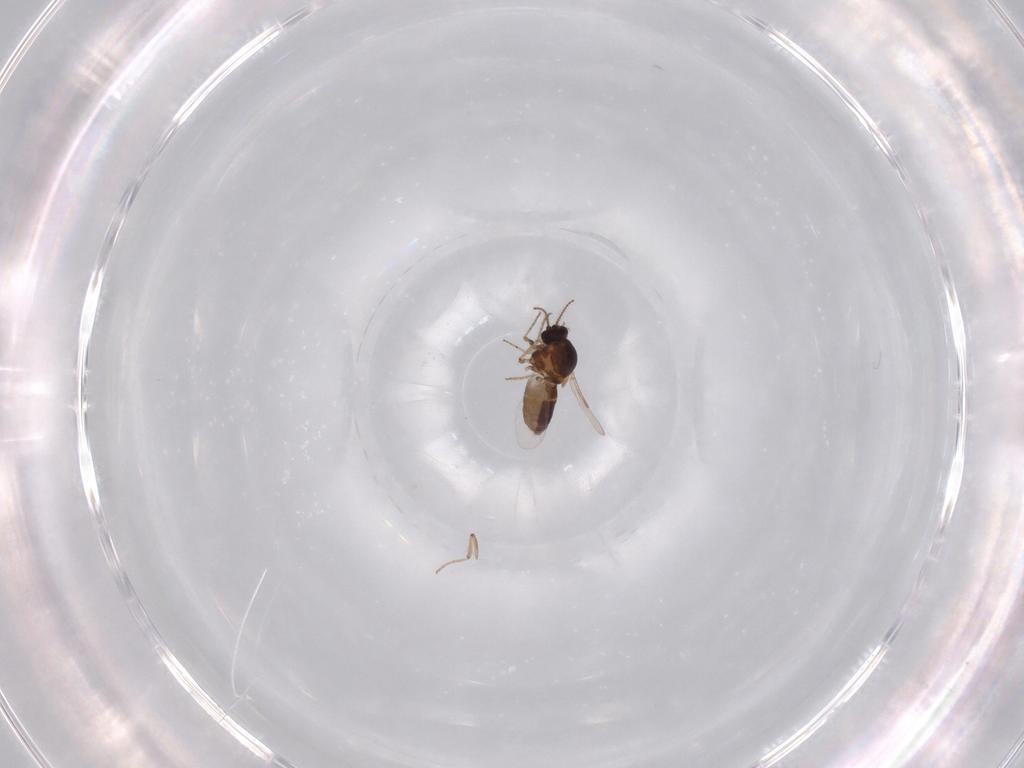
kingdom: Animalia
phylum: Arthropoda
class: Insecta
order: Diptera
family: Ceratopogonidae
